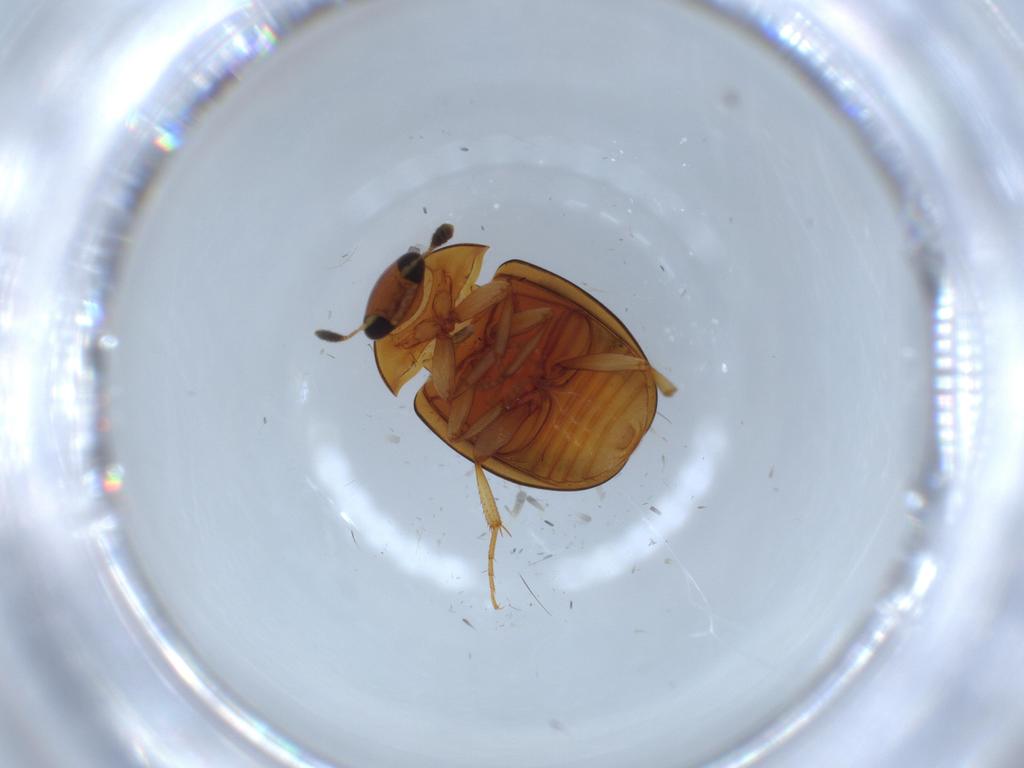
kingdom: Animalia
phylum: Arthropoda
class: Insecta
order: Coleoptera
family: Nitidulidae
